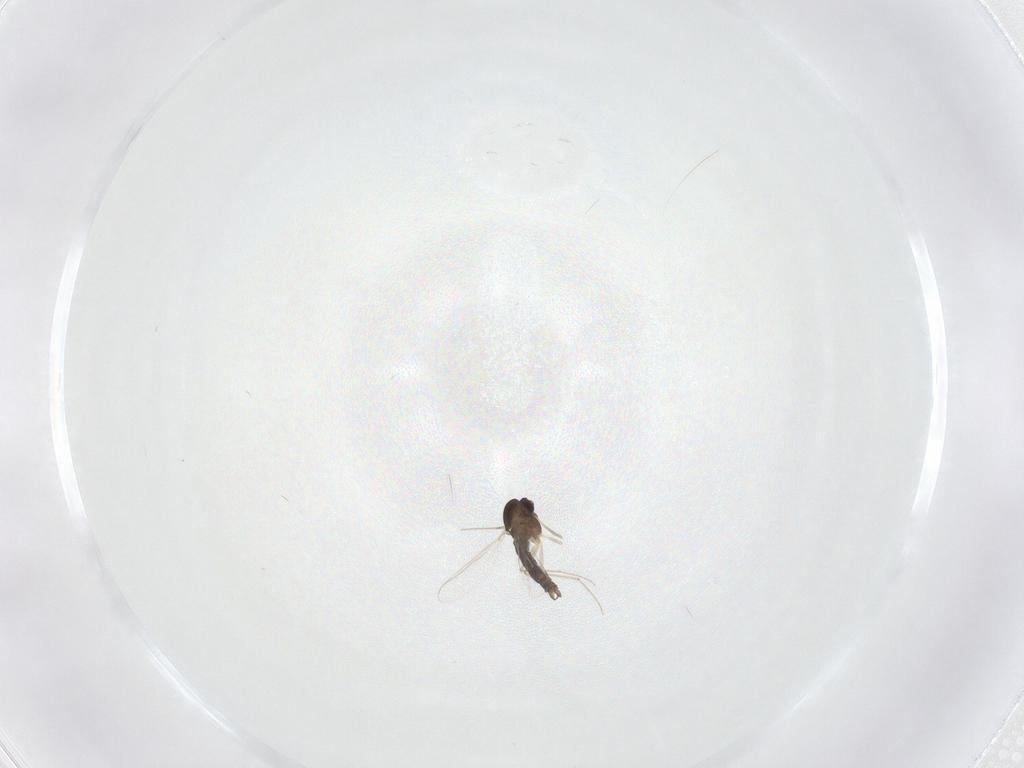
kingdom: Animalia
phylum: Arthropoda
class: Insecta
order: Diptera
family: Chironomidae
